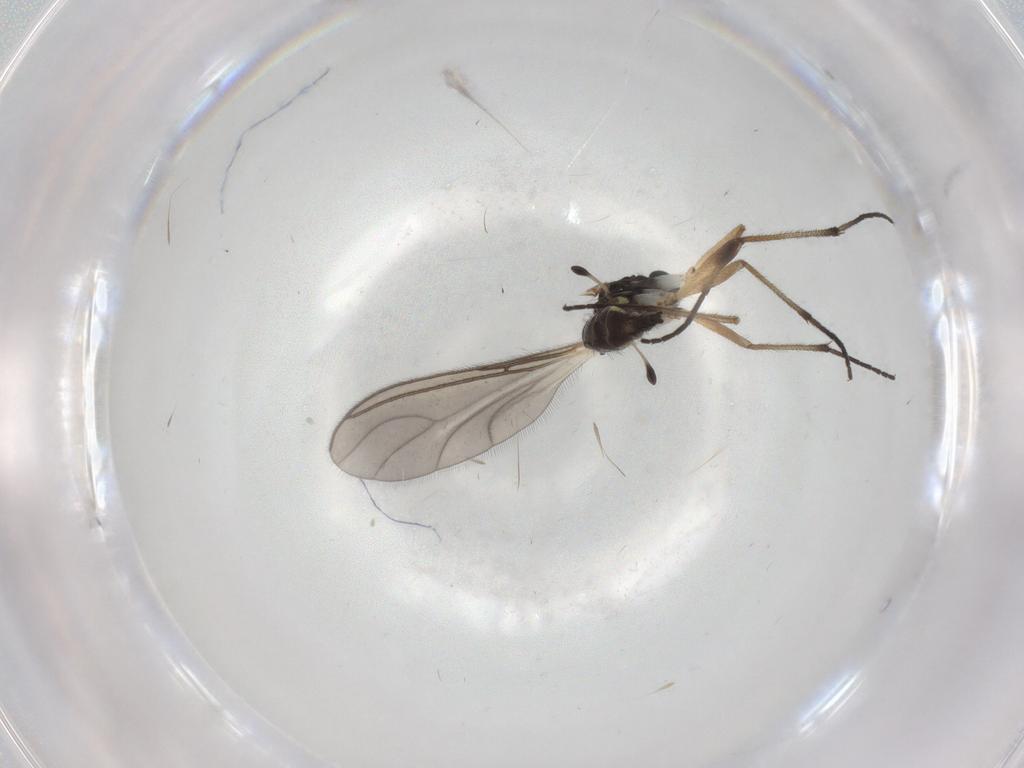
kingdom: Animalia
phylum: Arthropoda
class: Insecta
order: Diptera
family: Sciaridae
